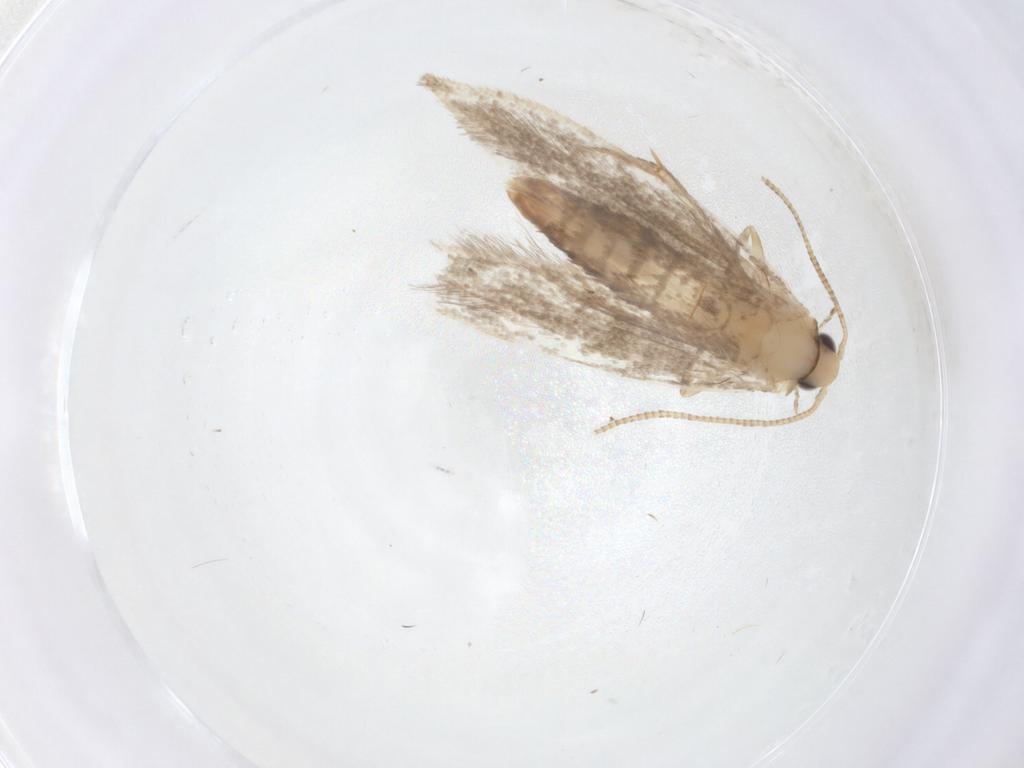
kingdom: Animalia
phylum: Arthropoda
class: Insecta
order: Lepidoptera
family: Tineidae
